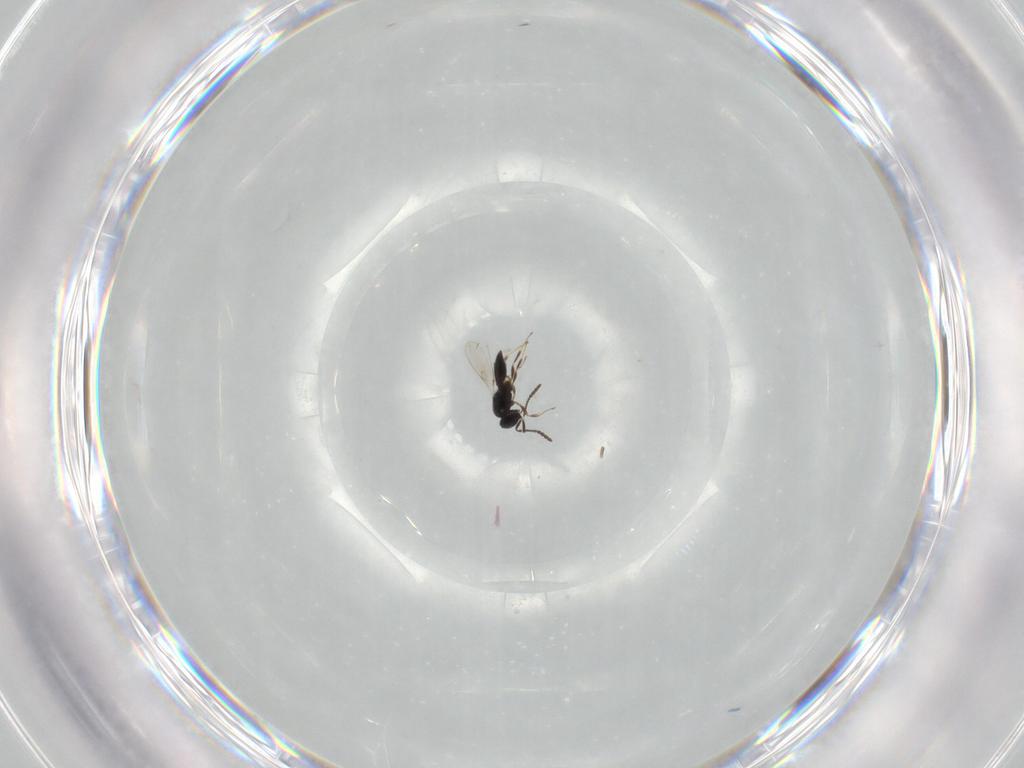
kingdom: Animalia
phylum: Arthropoda
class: Insecta
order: Hymenoptera
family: Scelionidae
